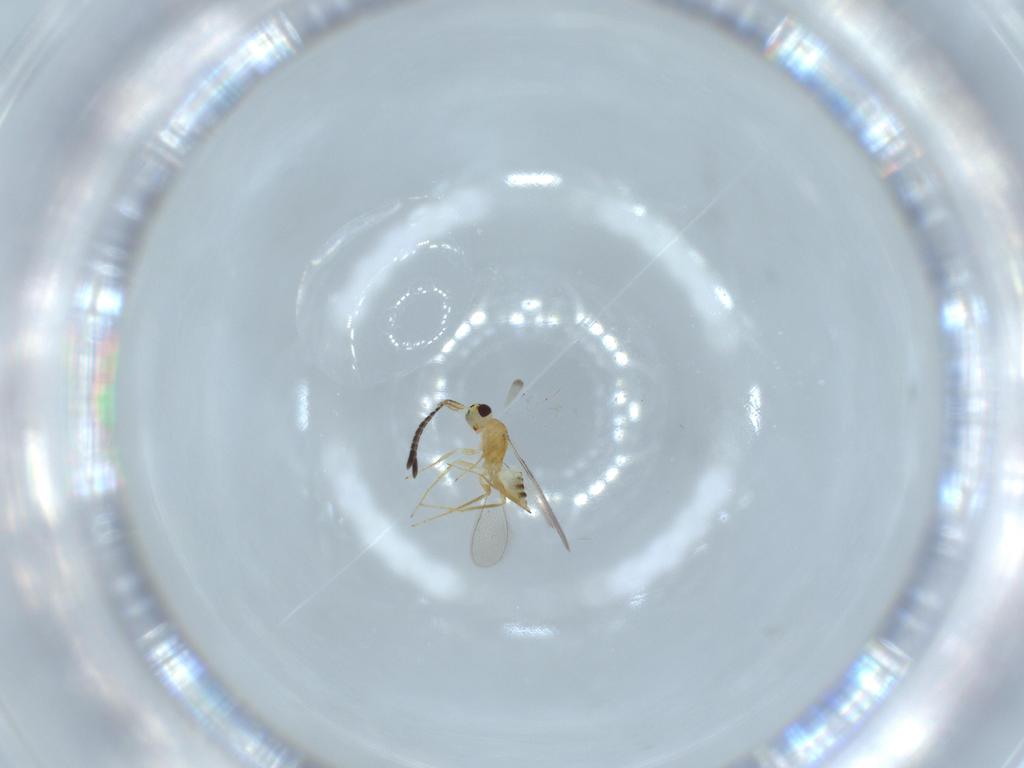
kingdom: Animalia
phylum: Arthropoda
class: Insecta
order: Hymenoptera
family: Mymaridae
